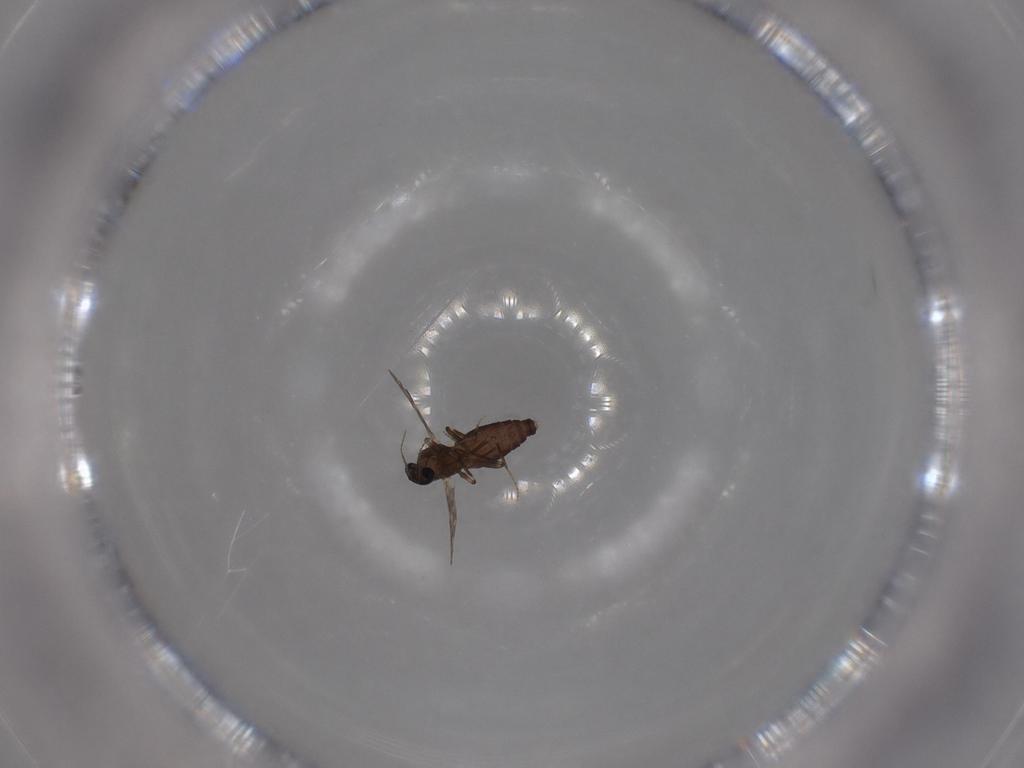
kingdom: Animalia
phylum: Arthropoda
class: Insecta
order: Diptera
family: Ceratopogonidae
